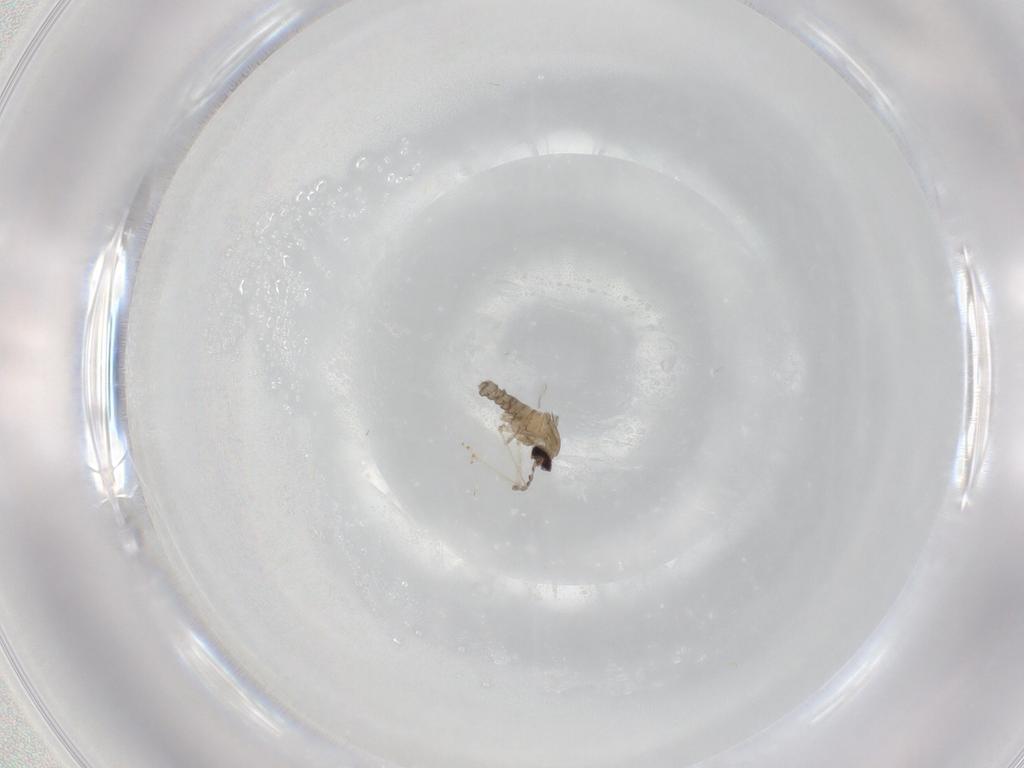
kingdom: Animalia
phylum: Arthropoda
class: Insecta
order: Diptera
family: Cecidomyiidae
